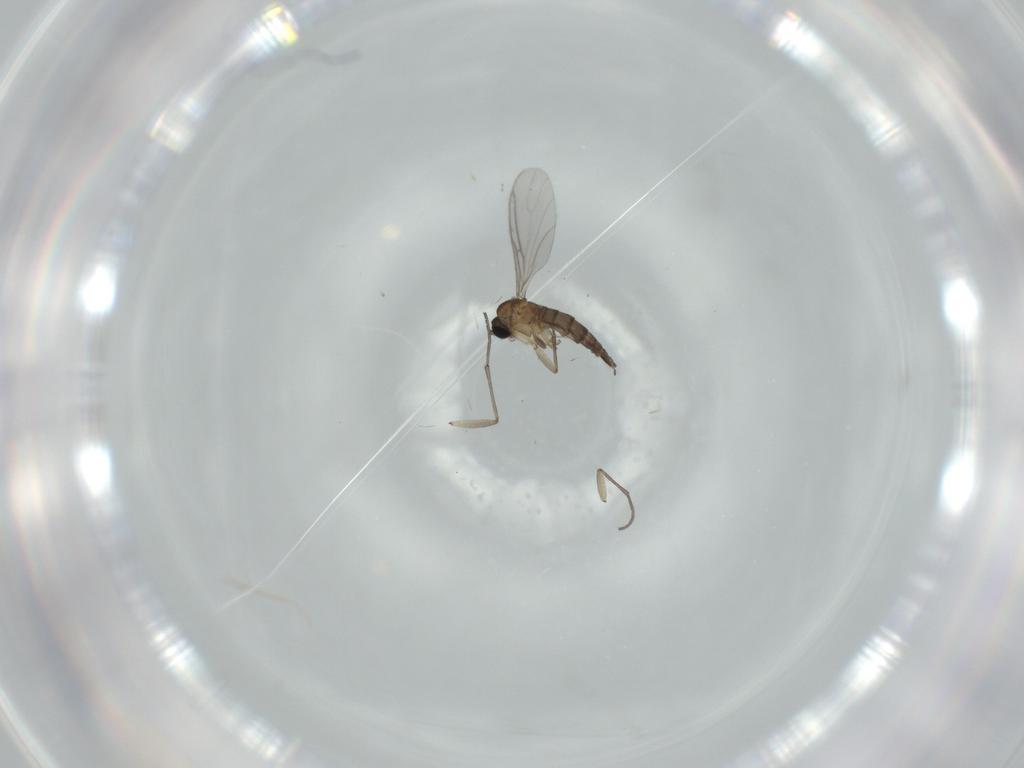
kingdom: Animalia
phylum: Arthropoda
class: Insecta
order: Diptera
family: Sciaridae
